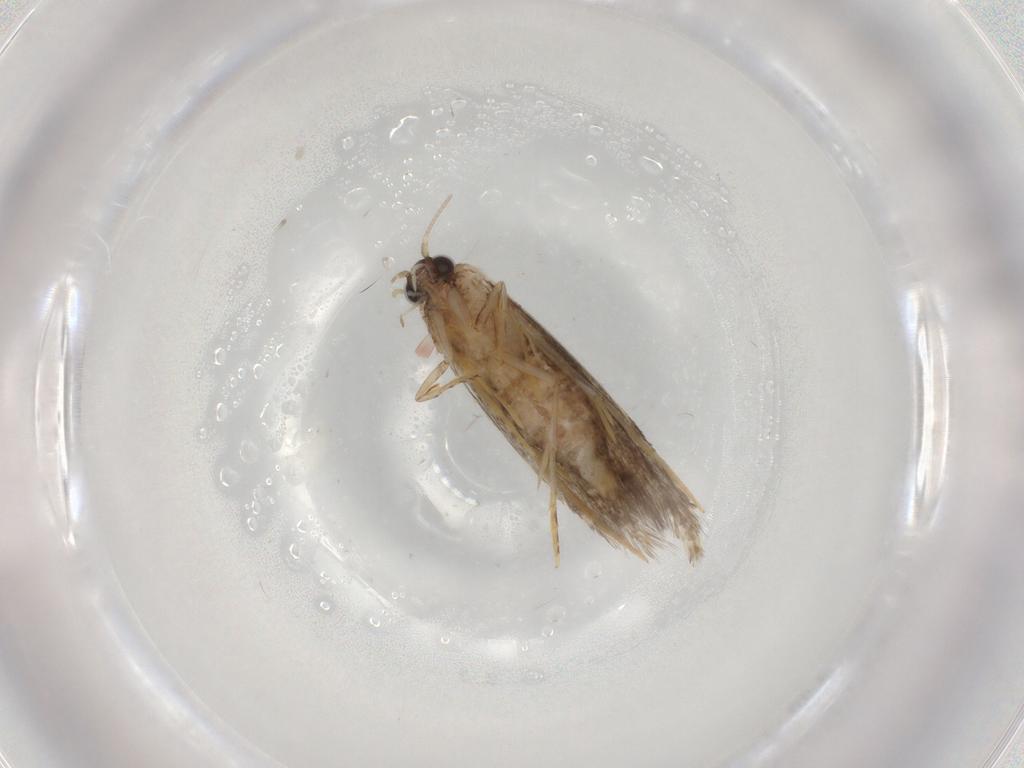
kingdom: Animalia
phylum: Arthropoda
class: Insecta
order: Lepidoptera
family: Tineidae
